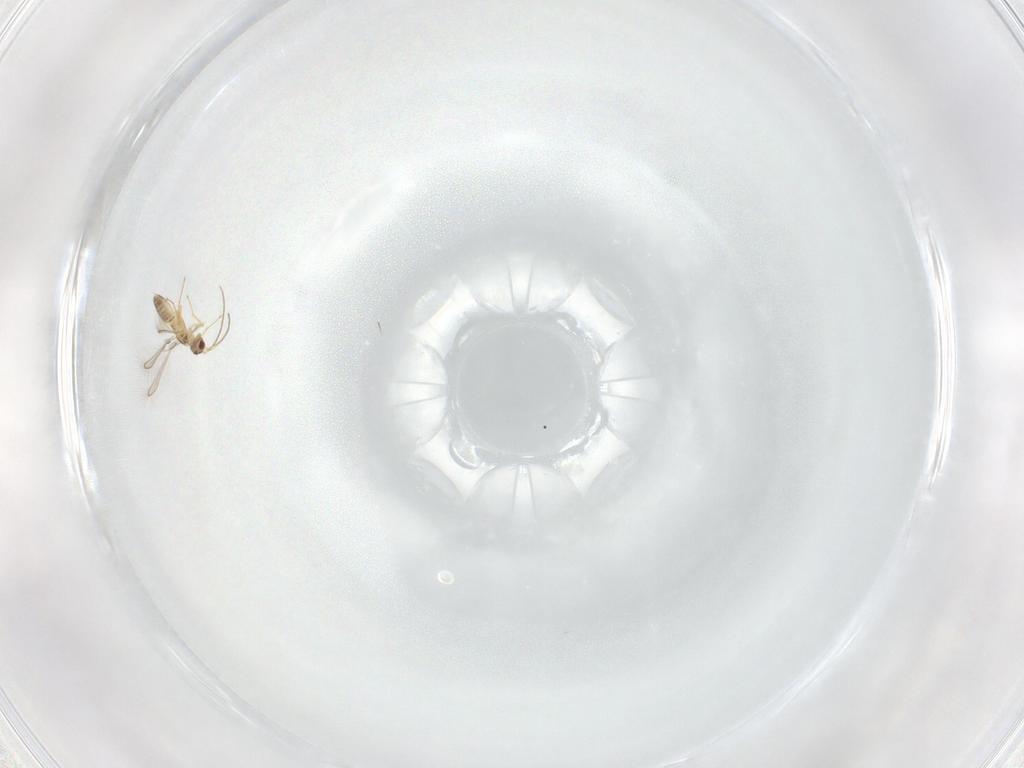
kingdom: Animalia
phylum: Arthropoda
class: Insecta
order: Hymenoptera
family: Mymaridae
